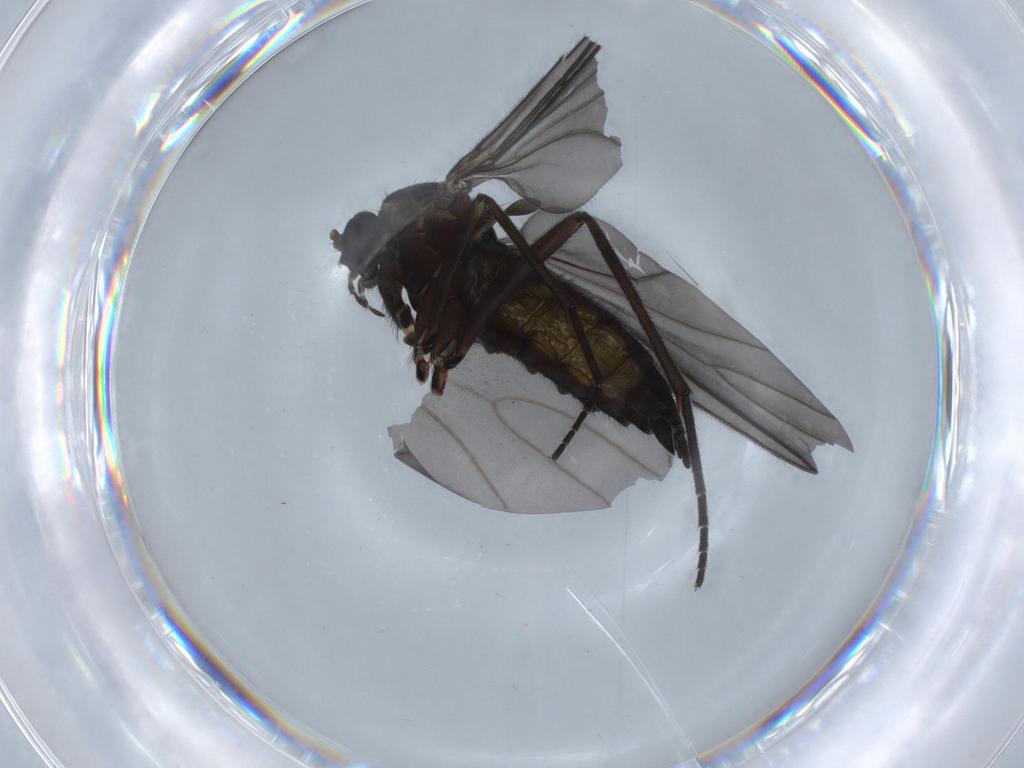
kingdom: Animalia
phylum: Arthropoda
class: Insecta
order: Diptera
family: Sciaridae
